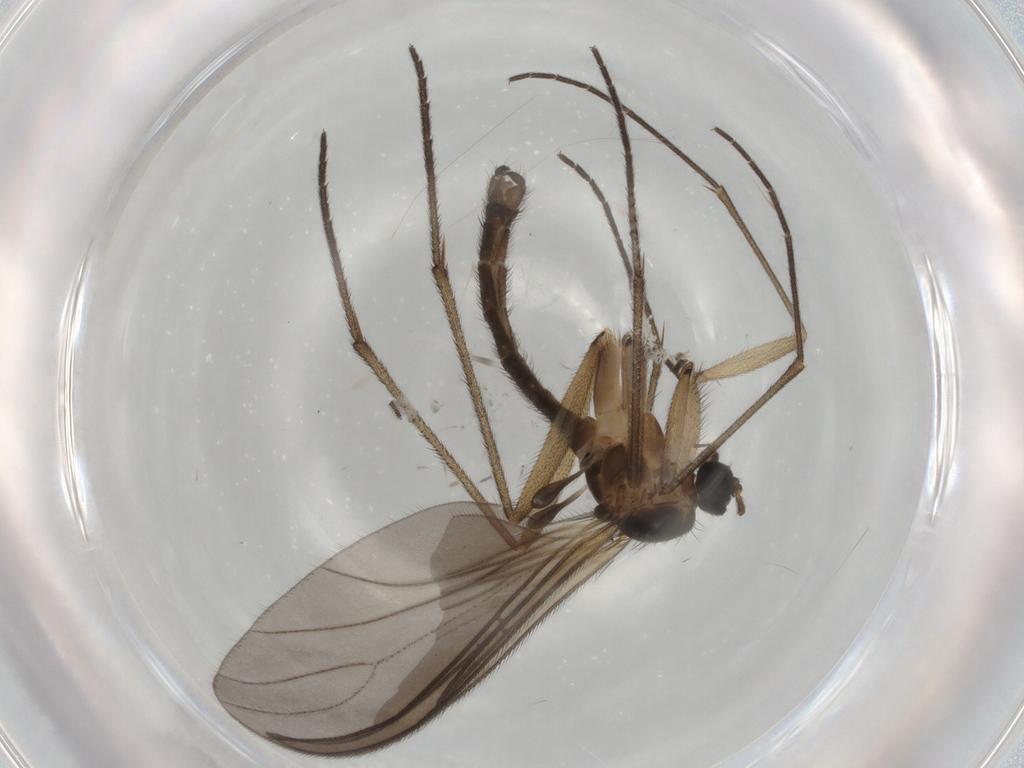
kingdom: Animalia
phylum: Arthropoda
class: Insecta
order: Diptera
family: Sciaridae
